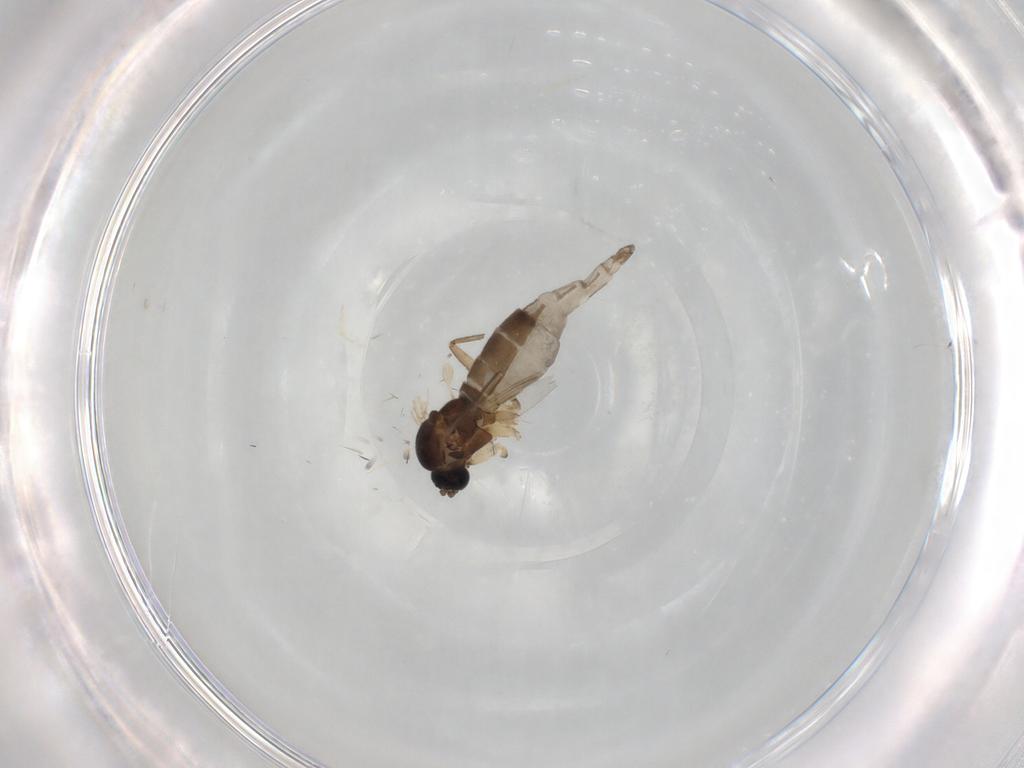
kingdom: Animalia
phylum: Arthropoda
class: Insecta
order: Diptera
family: Sciaridae
